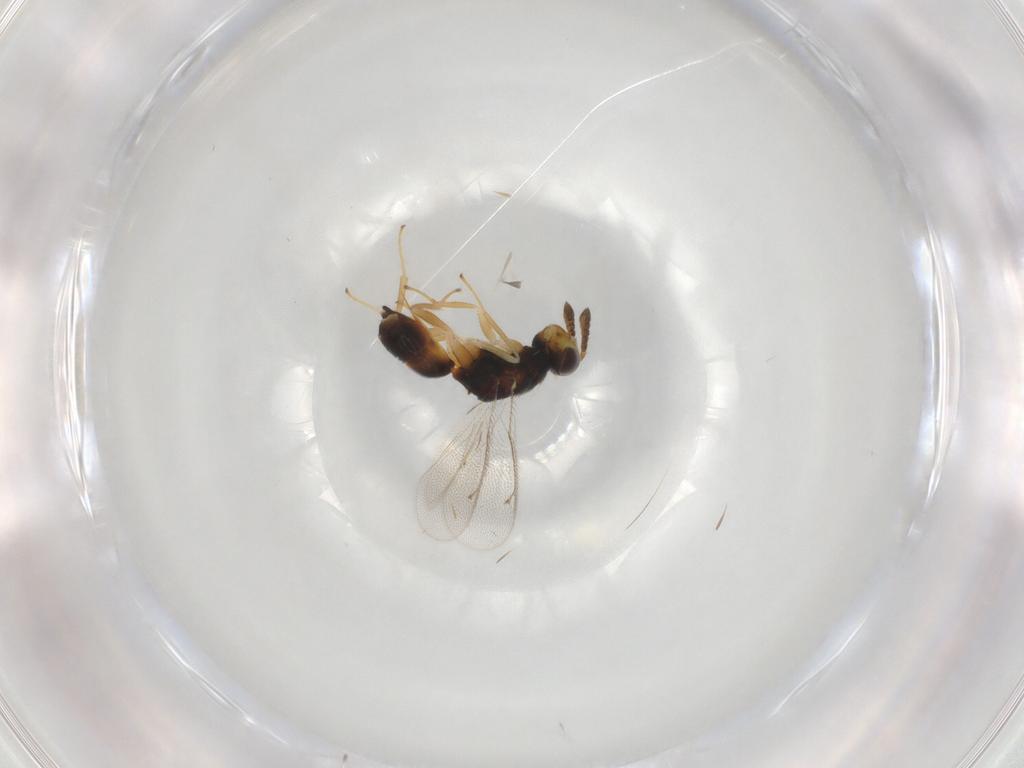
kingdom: Animalia
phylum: Arthropoda
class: Insecta
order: Hymenoptera
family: Eulophidae
